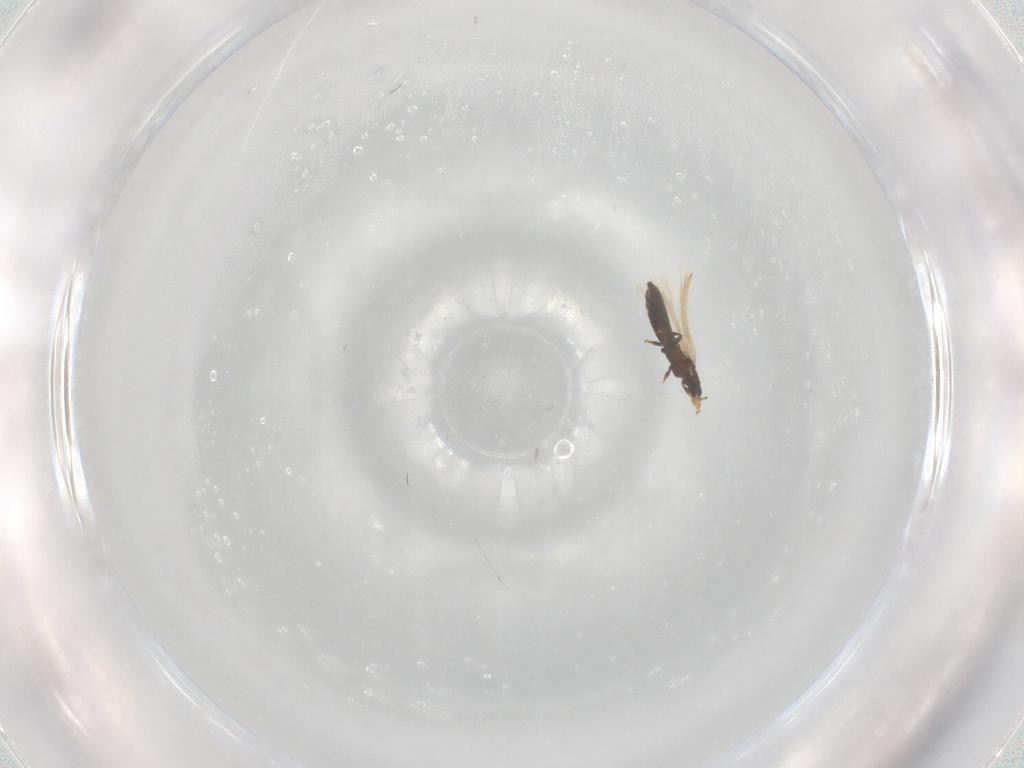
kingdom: Animalia
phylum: Arthropoda
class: Insecta
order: Thysanoptera
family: Thripidae
